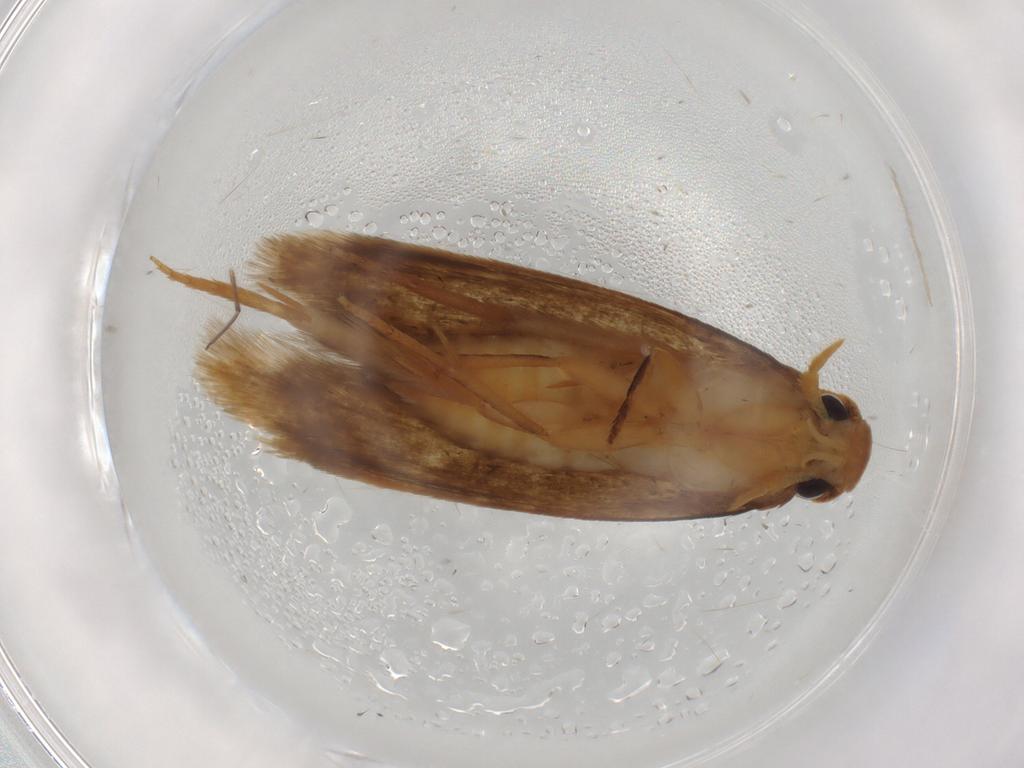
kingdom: Animalia
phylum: Arthropoda
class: Insecta
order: Lepidoptera
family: Tineidae
